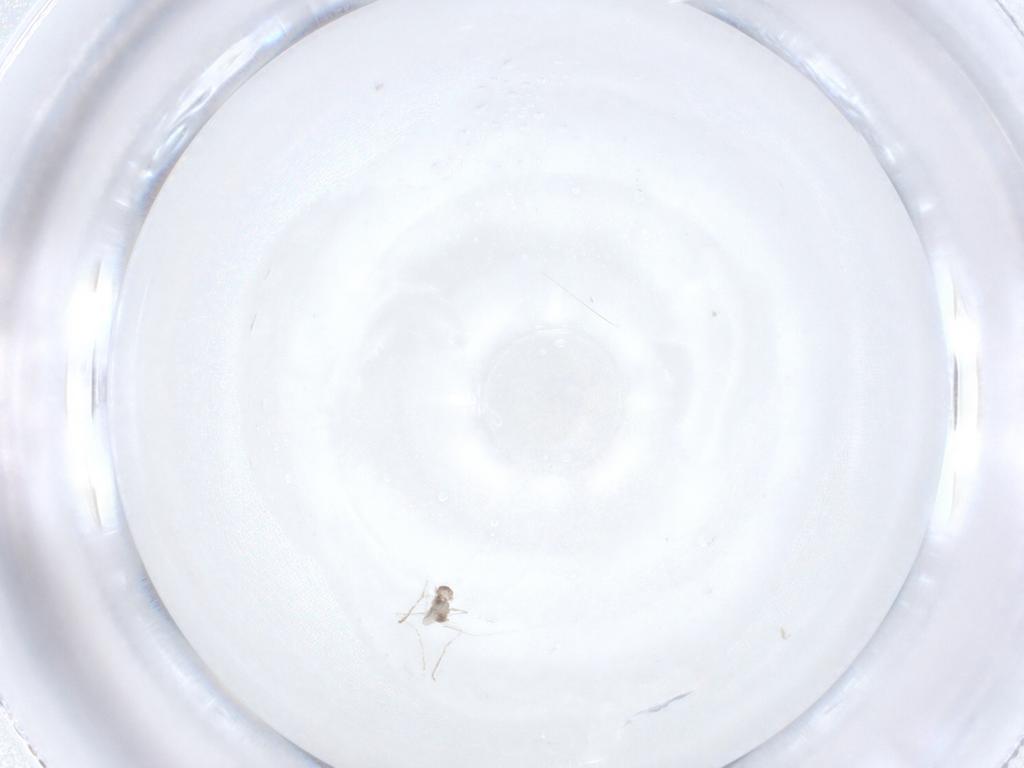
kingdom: Animalia
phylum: Arthropoda
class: Insecta
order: Diptera
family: Cecidomyiidae
